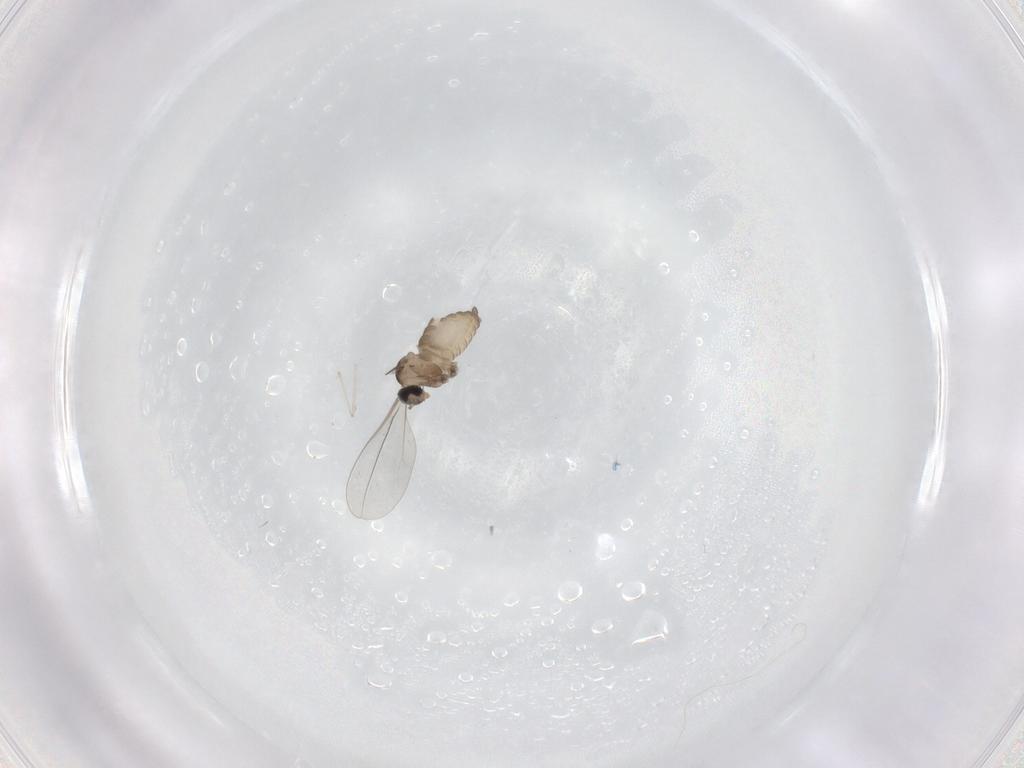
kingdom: Animalia
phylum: Arthropoda
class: Insecta
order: Diptera
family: Cecidomyiidae
